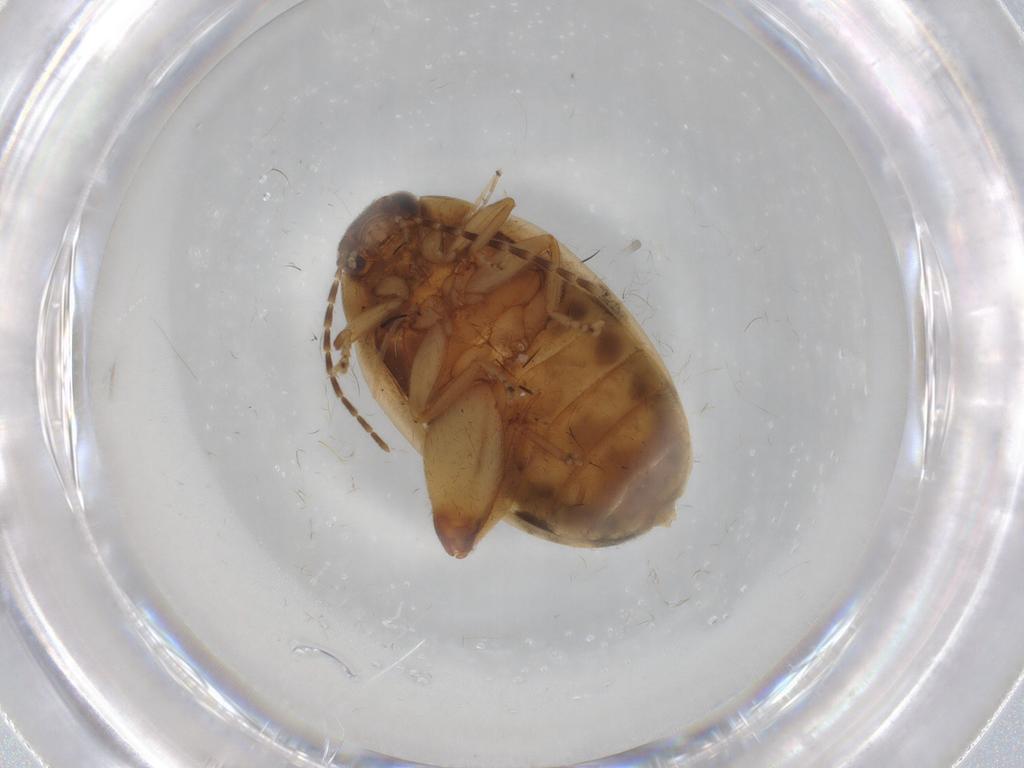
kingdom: Animalia
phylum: Arthropoda
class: Insecta
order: Coleoptera
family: Scirtidae
